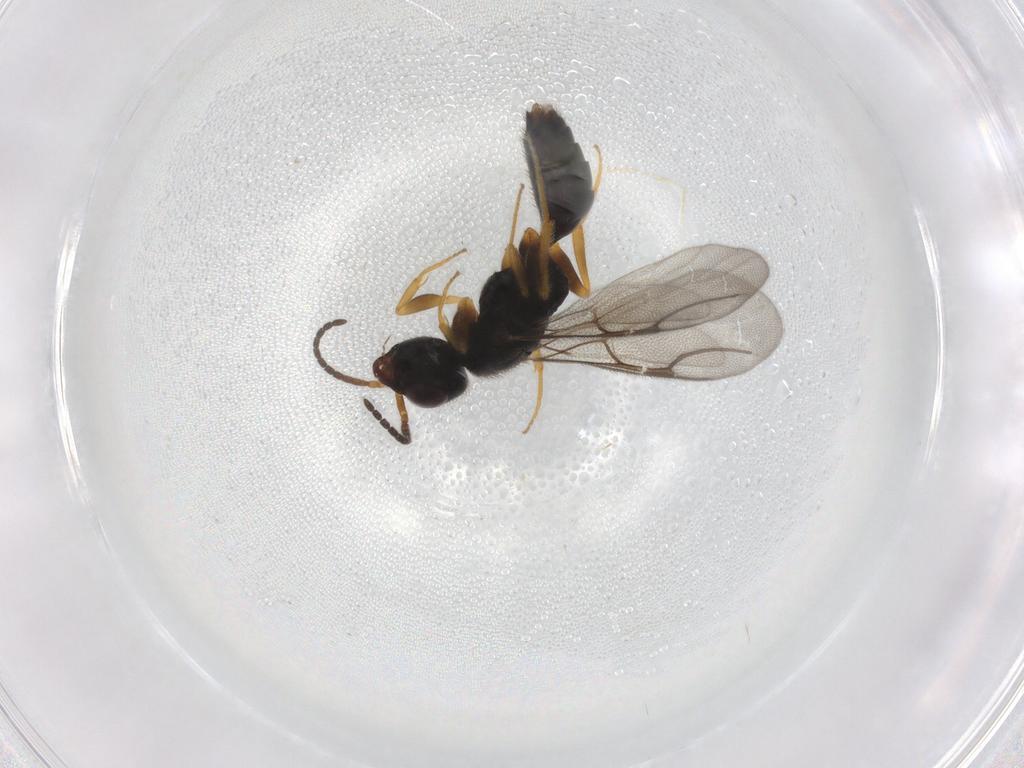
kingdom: Animalia
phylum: Arthropoda
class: Insecta
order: Hymenoptera
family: Bethylidae
